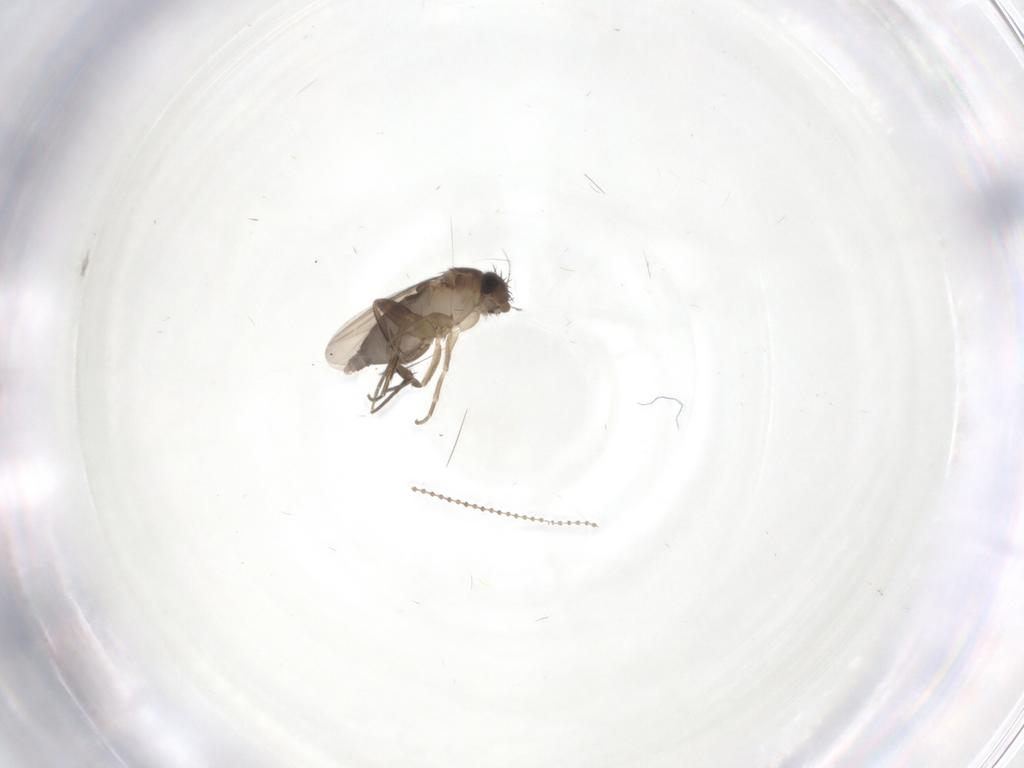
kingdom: Animalia
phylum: Arthropoda
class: Insecta
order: Diptera
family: Phoridae
